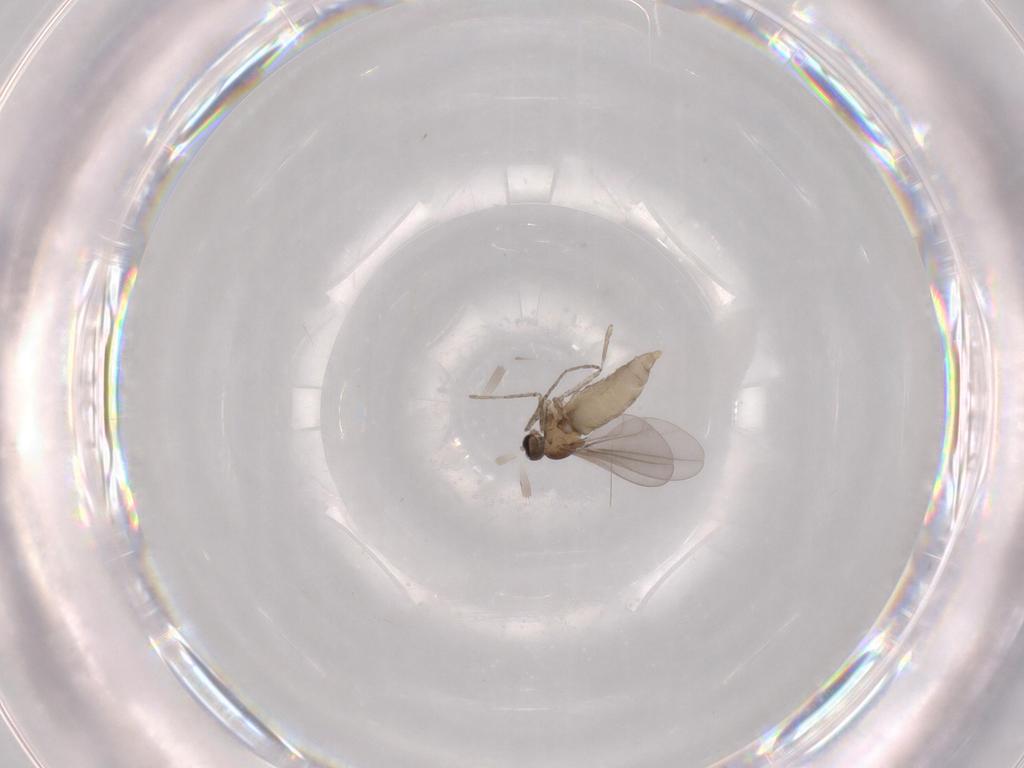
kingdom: Animalia
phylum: Arthropoda
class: Insecta
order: Diptera
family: Cecidomyiidae
